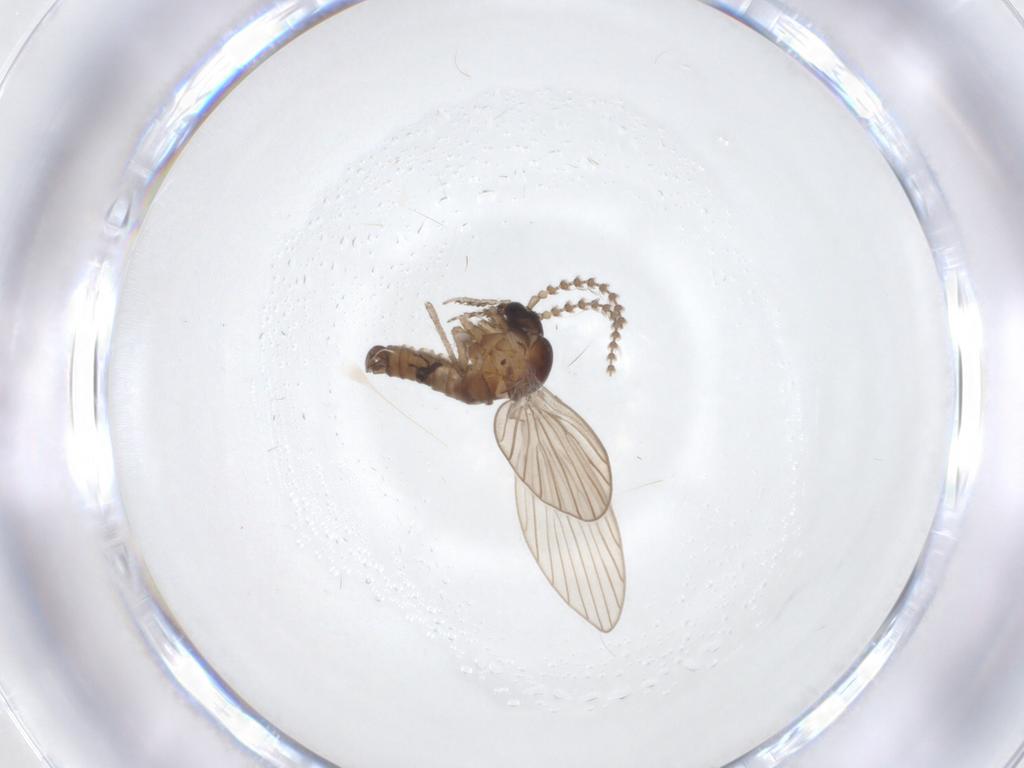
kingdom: Animalia
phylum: Arthropoda
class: Insecta
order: Diptera
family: Psychodidae
